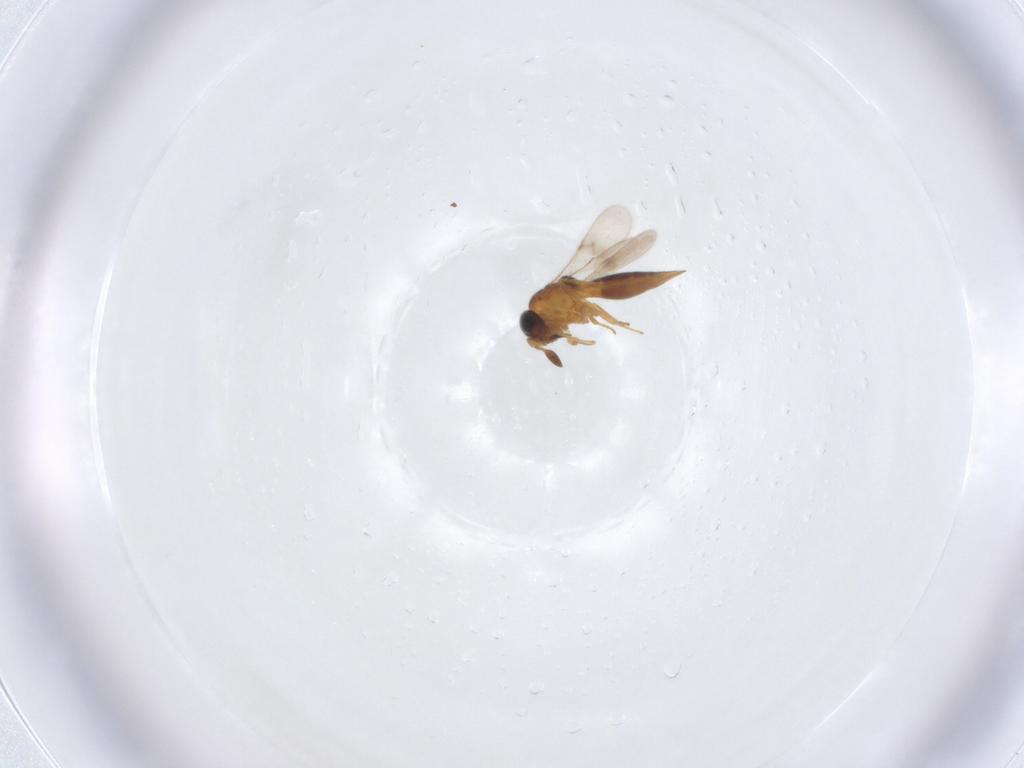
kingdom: Animalia
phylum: Arthropoda
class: Insecta
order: Hymenoptera
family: Scelionidae
